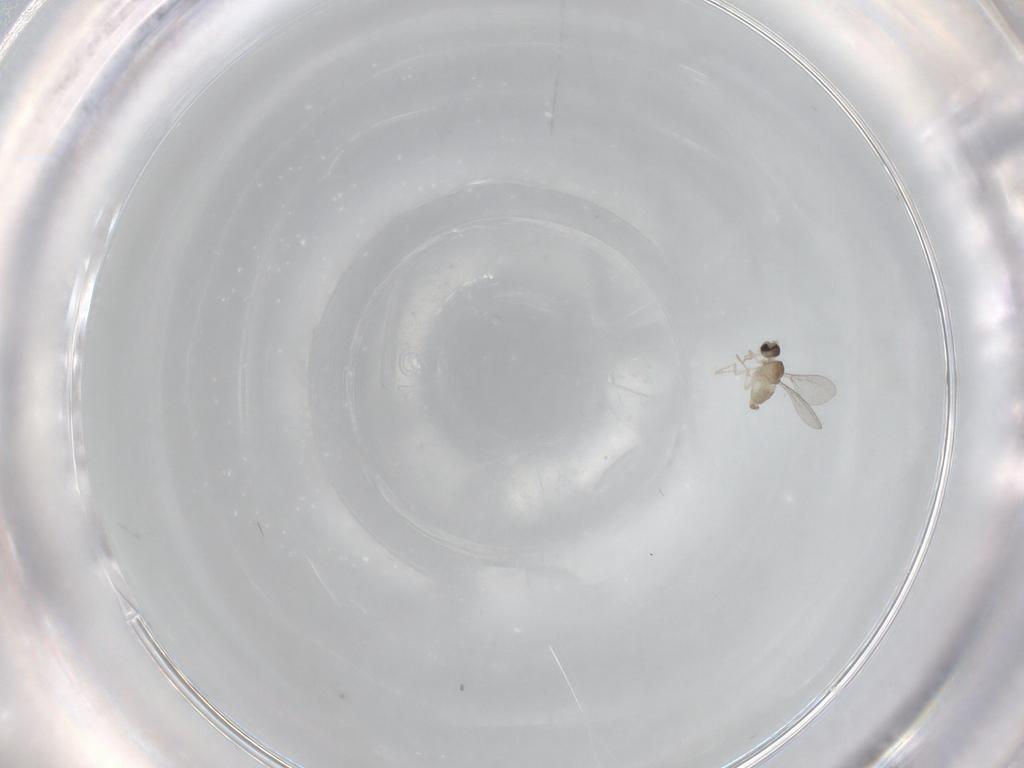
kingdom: Animalia
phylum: Arthropoda
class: Insecta
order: Diptera
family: Cecidomyiidae
